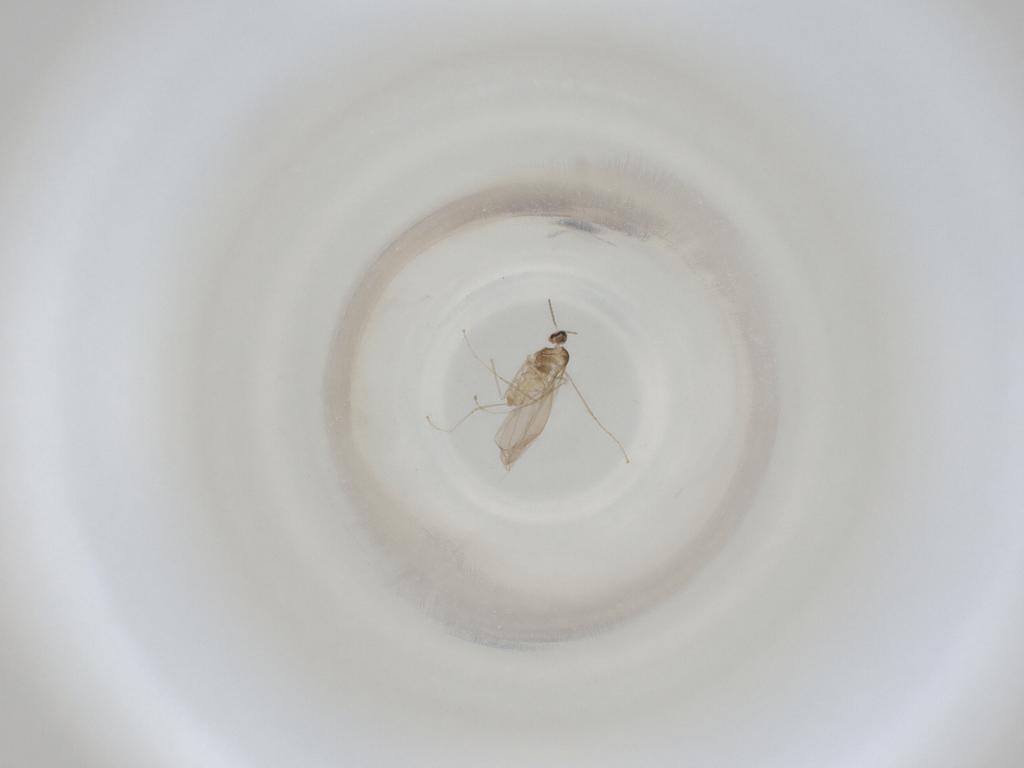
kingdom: Animalia
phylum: Arthropoda
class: Insecta
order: Diptera
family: Cecidomyiidae
